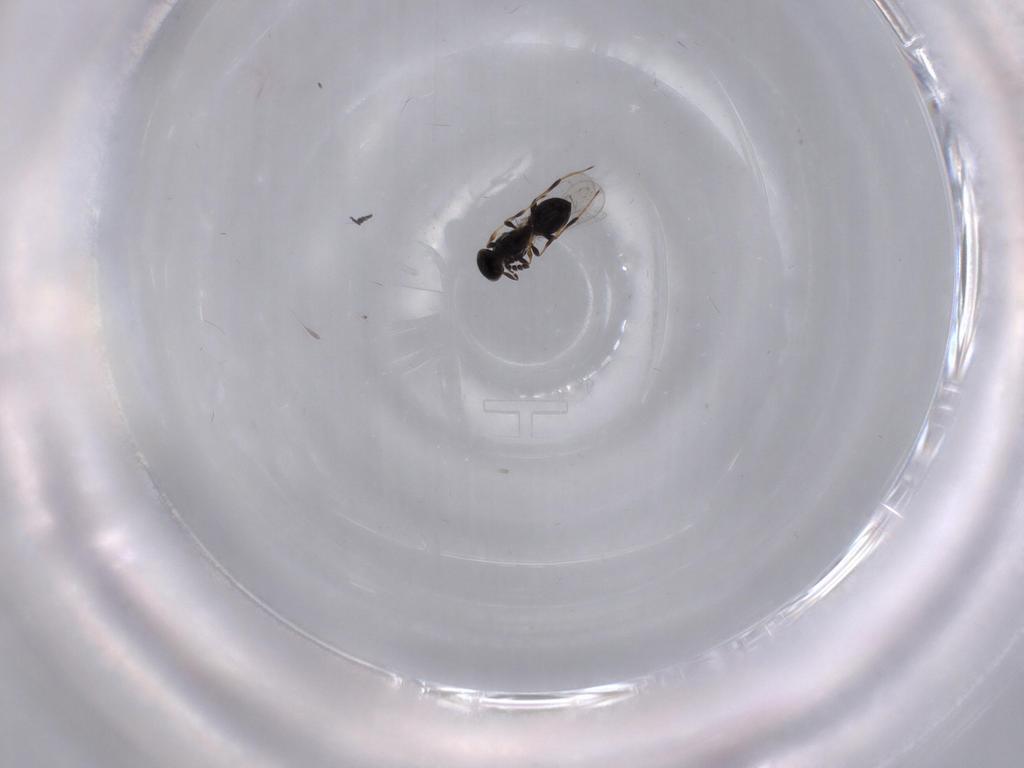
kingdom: Animalia
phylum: Arthropoda
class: Insecta
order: Hymenoptera
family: Platygastridae
